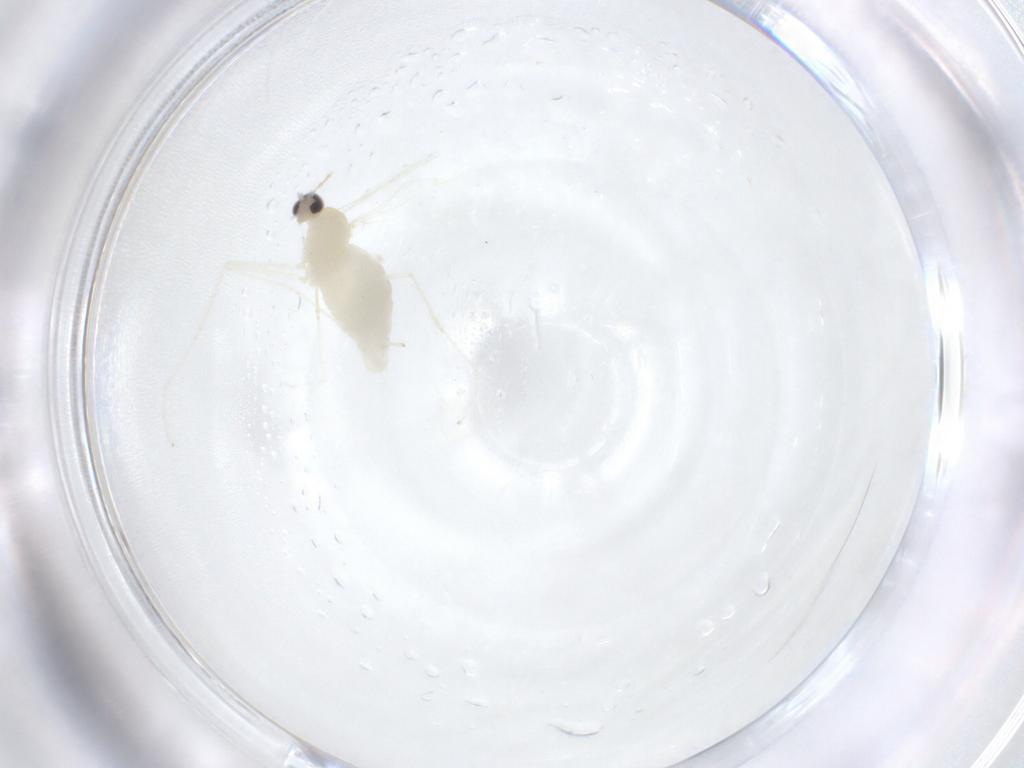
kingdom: Animalia
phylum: Arthropoda
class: Insecta
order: Diptera
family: Cecidomyiidae
